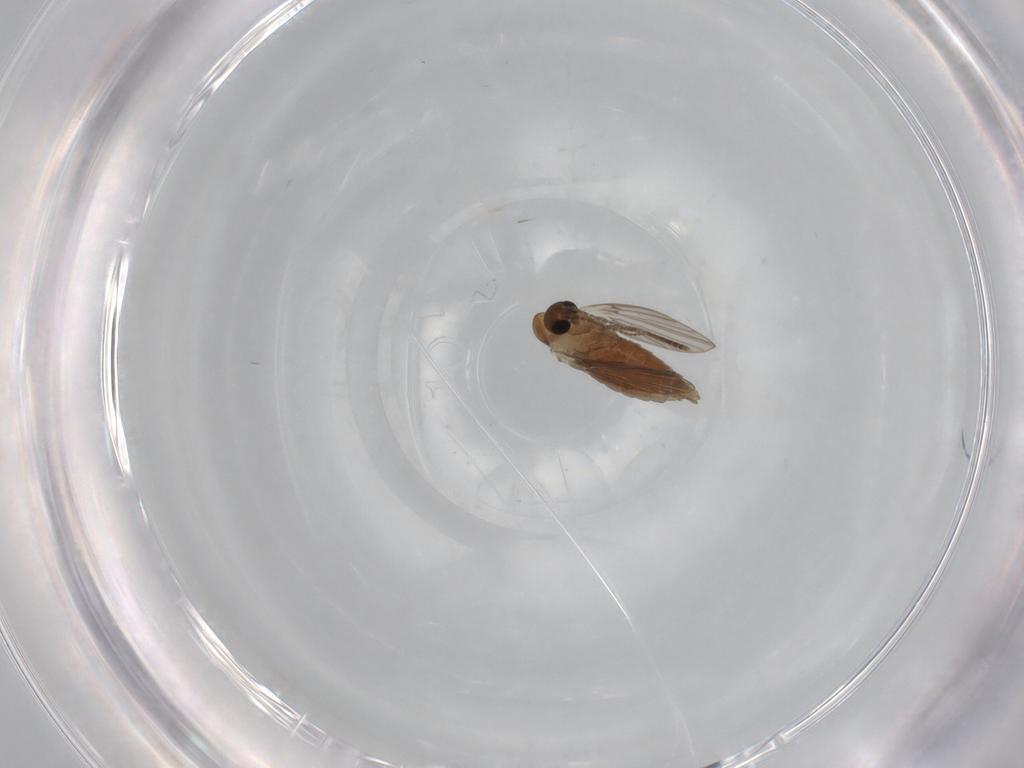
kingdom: Animalia
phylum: Arthropoda
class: Insecta
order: Diptera
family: Psychodidae
